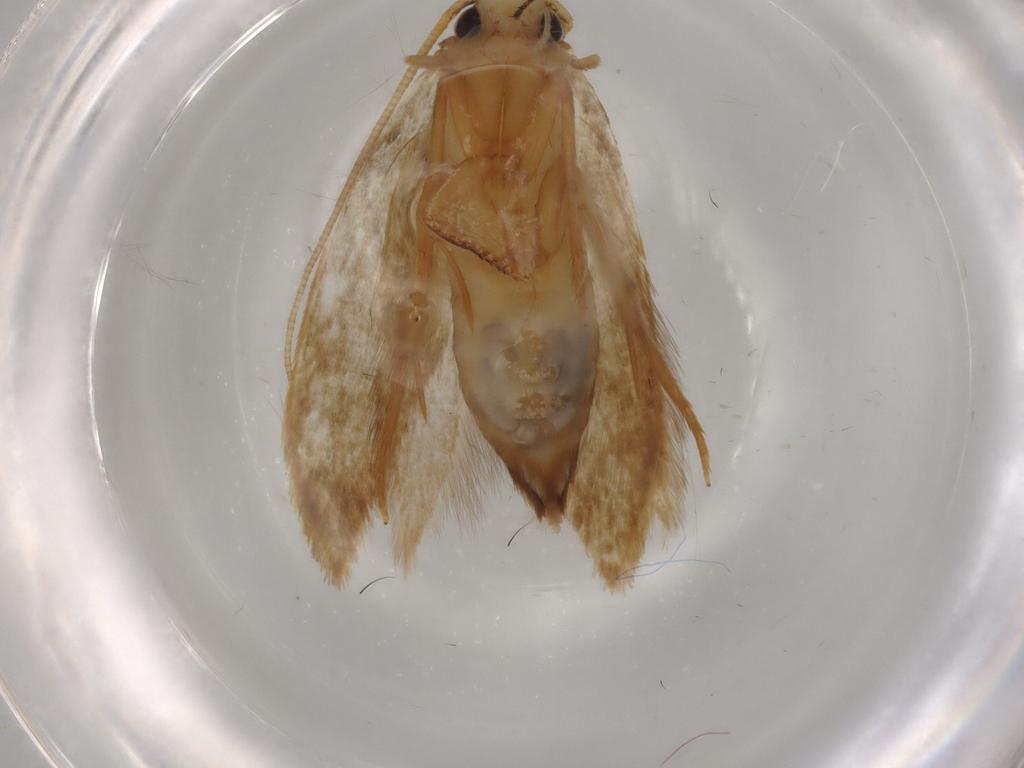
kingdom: Animalia
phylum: Arthropoda
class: Insecta
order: Lepidoptera
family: Tineidae
